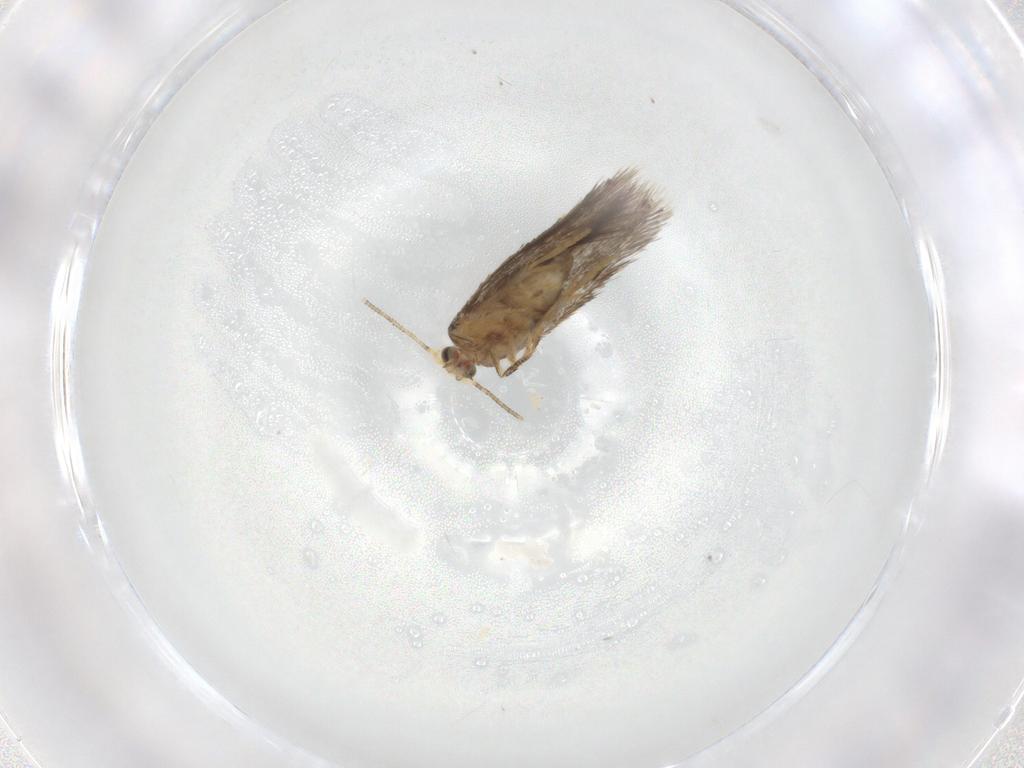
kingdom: Animalia
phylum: Arthropoda
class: Insecta
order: Lepidoptera
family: Nepticulidae
